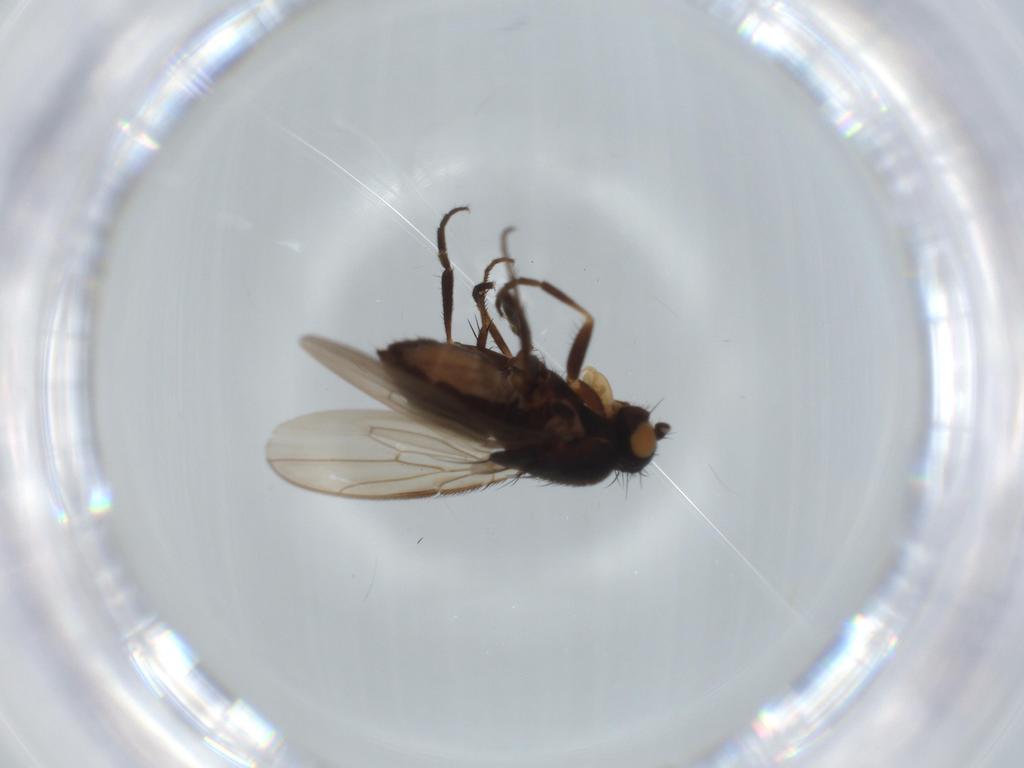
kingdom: Animalia
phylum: Arthropoda
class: Insecta
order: Diptera
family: Sphaeroceridae
